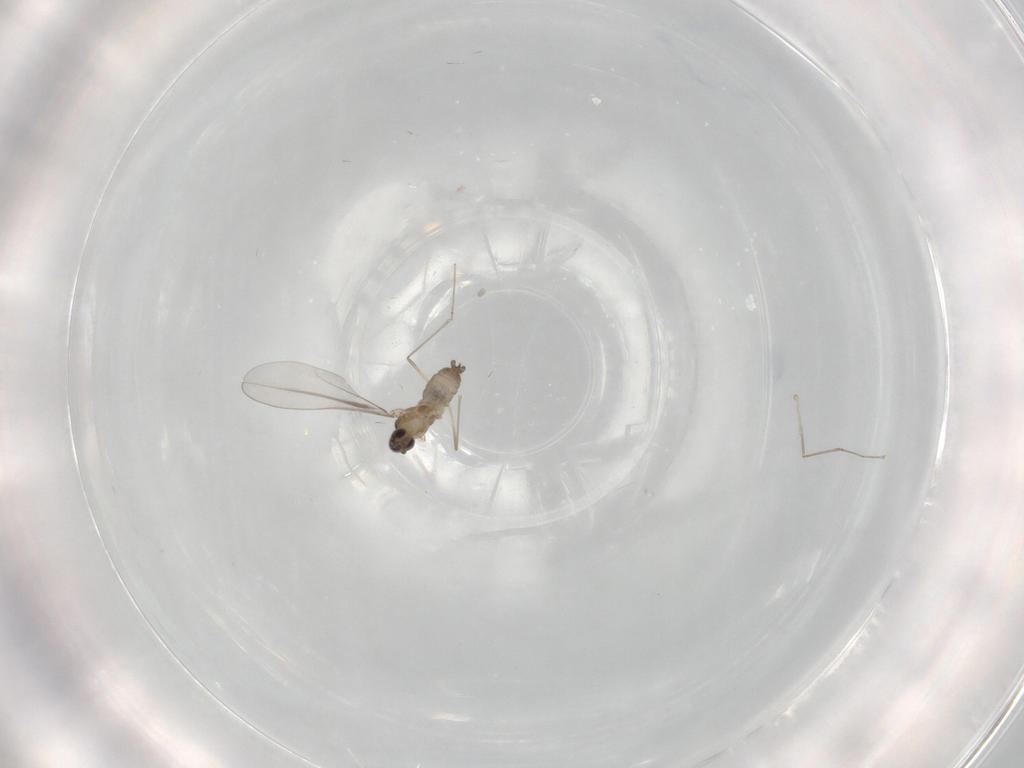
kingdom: Animalia
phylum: Arthropoda
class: Insecta
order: Diptera
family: Cecidomyiidae
